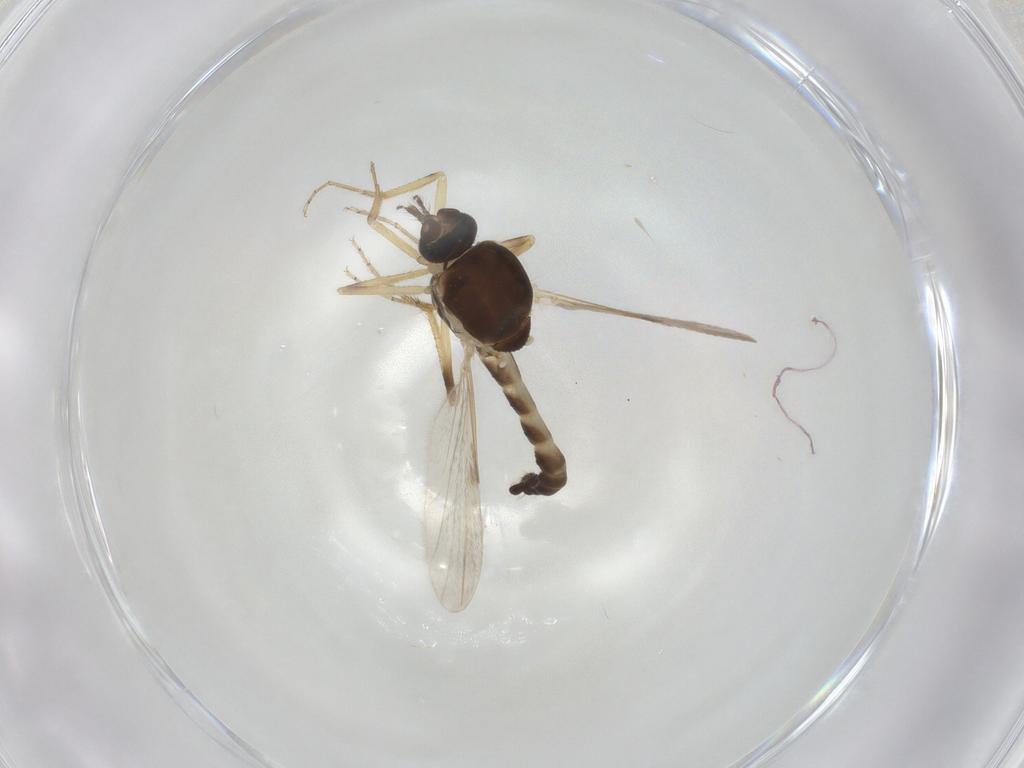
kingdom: Animalia
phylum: Arthropoda
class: Insecta
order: Diptera
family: Ceratopogonidae
